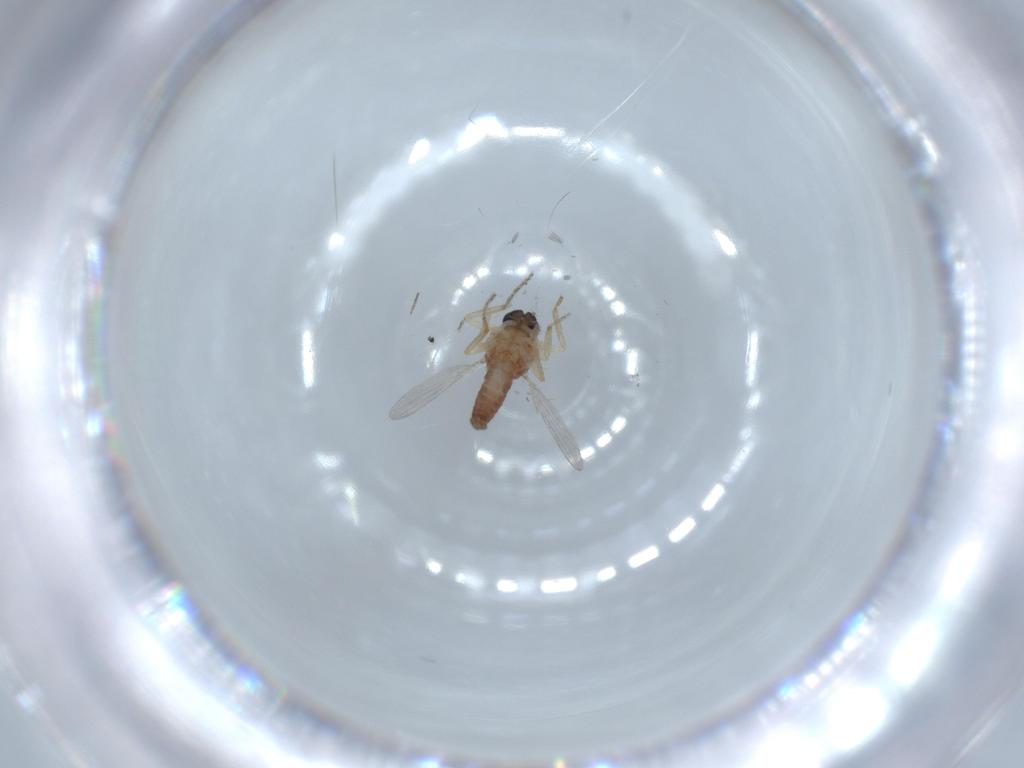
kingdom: Animalia
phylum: Arthropoda
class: Insecta
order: Diptera
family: Ceratopogonidae
